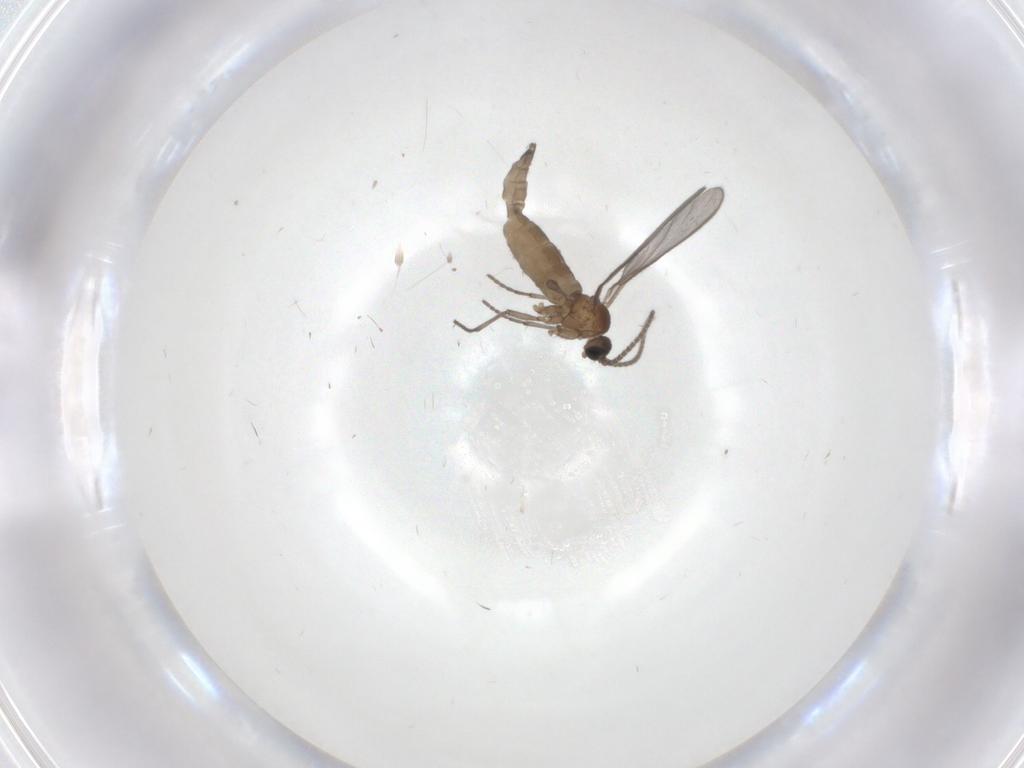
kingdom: Animalia
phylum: Arthropoda
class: Insecta
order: Diptera
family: Sciaridae
